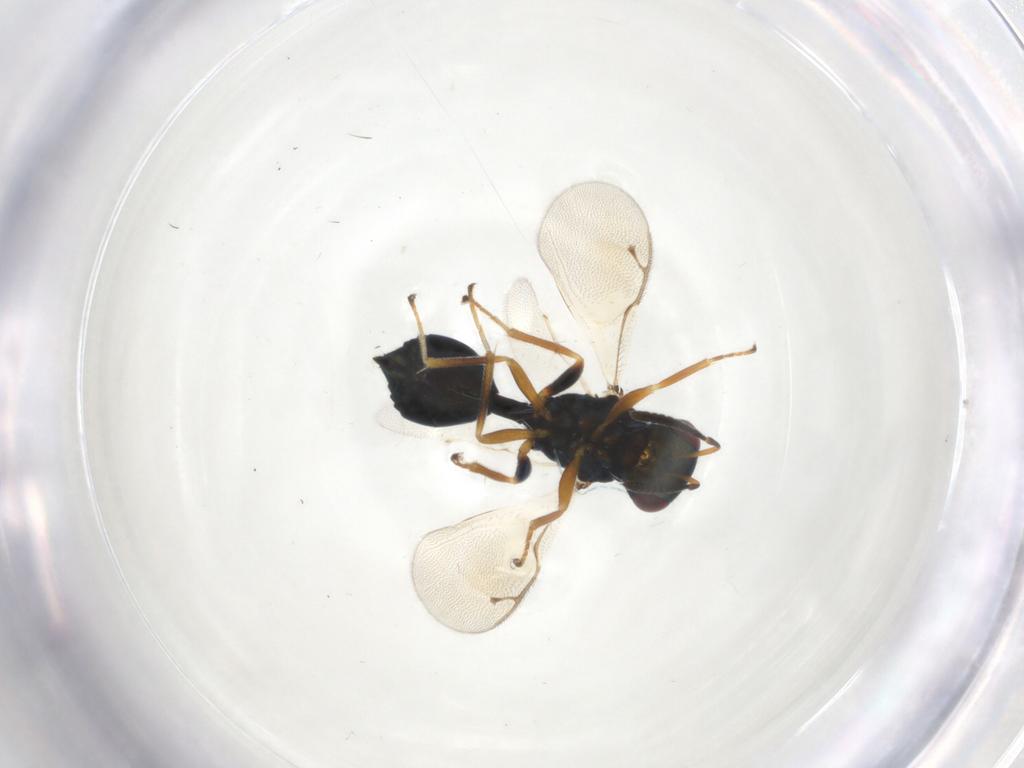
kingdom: Animalia
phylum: Arthropoda
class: Insecta
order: Hymenoptera
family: Pteromalidae
